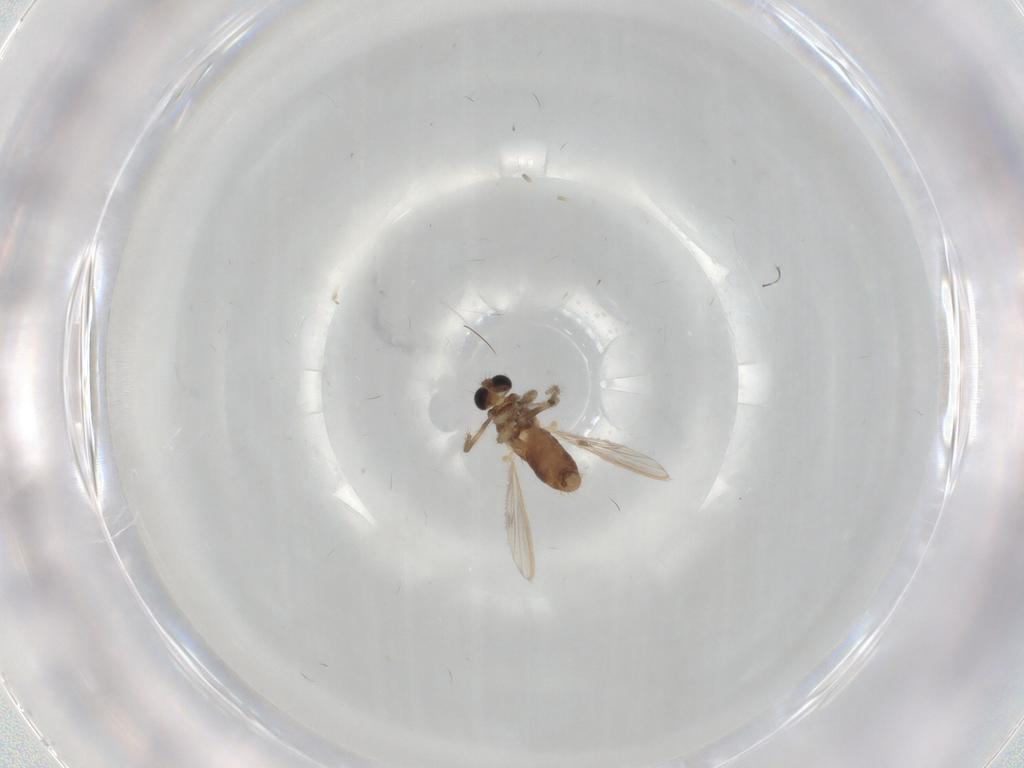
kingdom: Animalia
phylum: Arthropoda
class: Insecta
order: Diptera
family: Chironomidae
